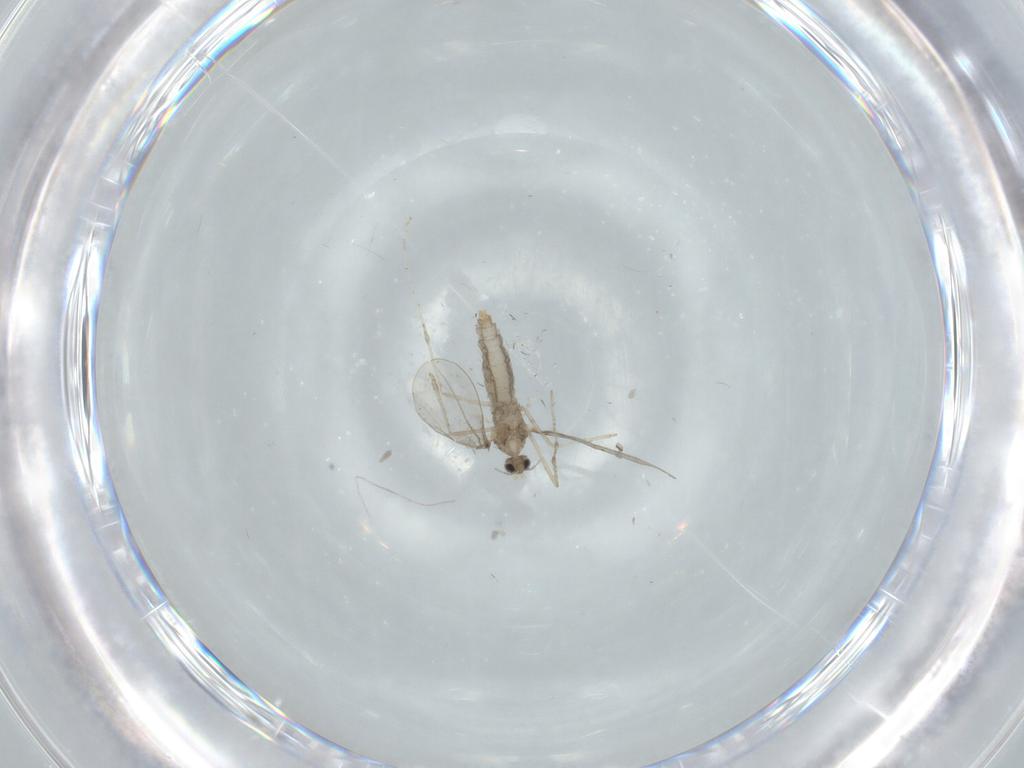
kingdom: Animalia
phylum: Arthropoda
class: Insecta
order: Diptera
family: Cecidomyiidae
